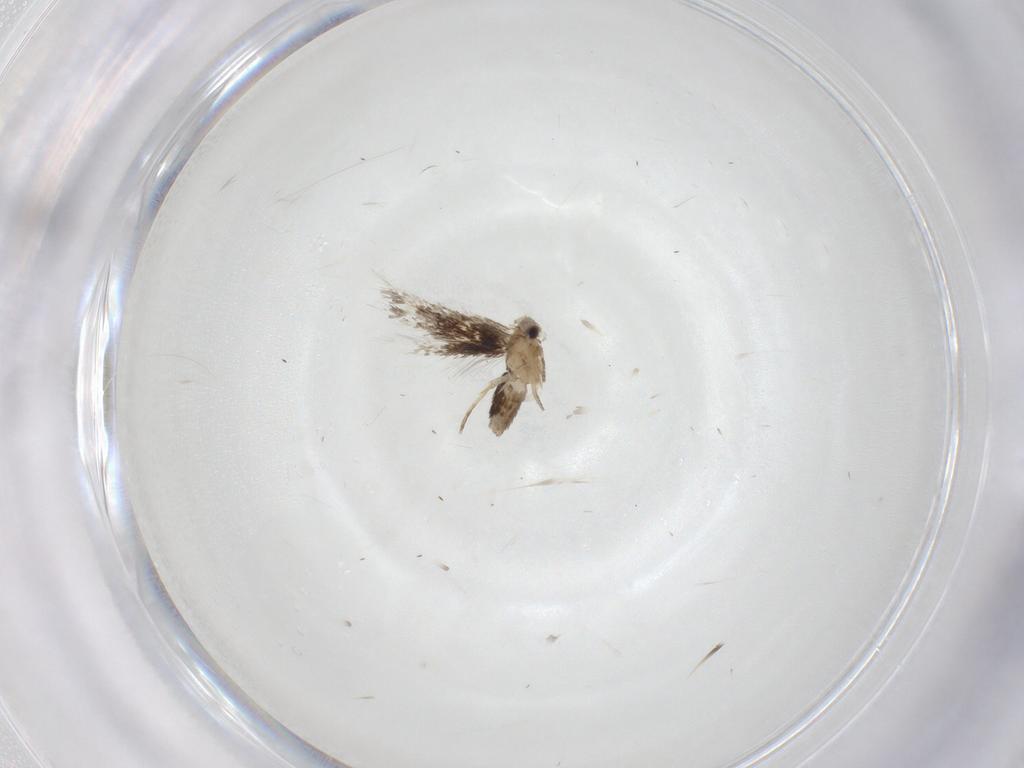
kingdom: Animalia
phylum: Arthropoda
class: Insecta
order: Lepidoptera
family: Nepticulidae
